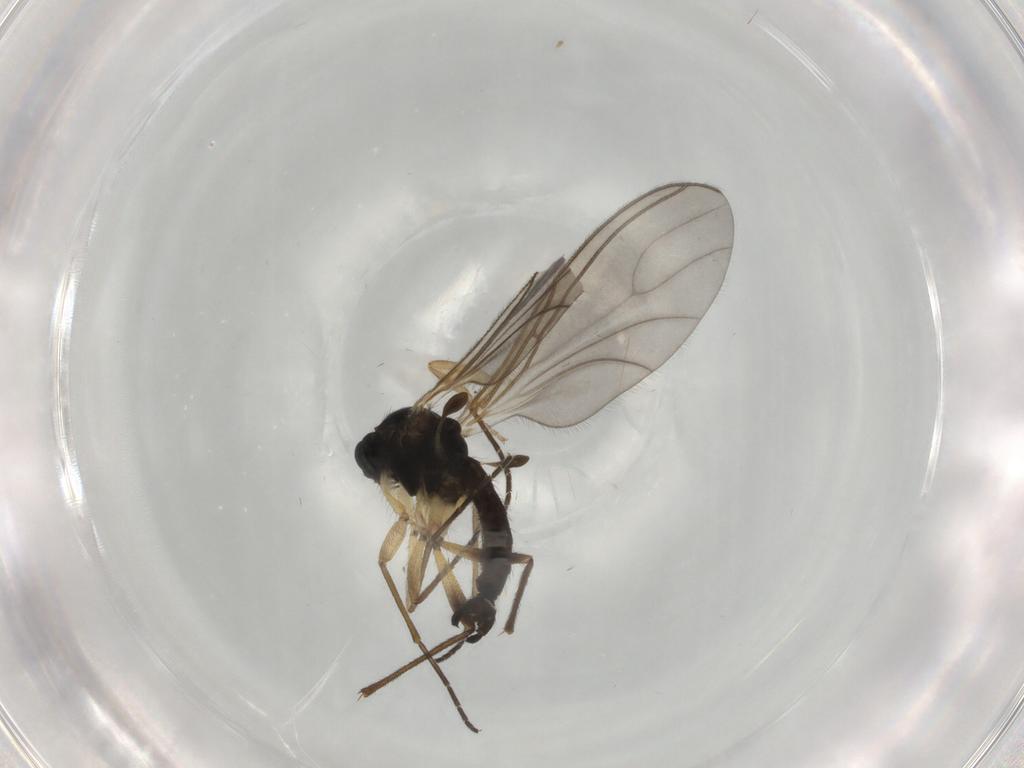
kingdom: Animalia
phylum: Arthropoda
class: Insecta
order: Diptera
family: Sciaridae
